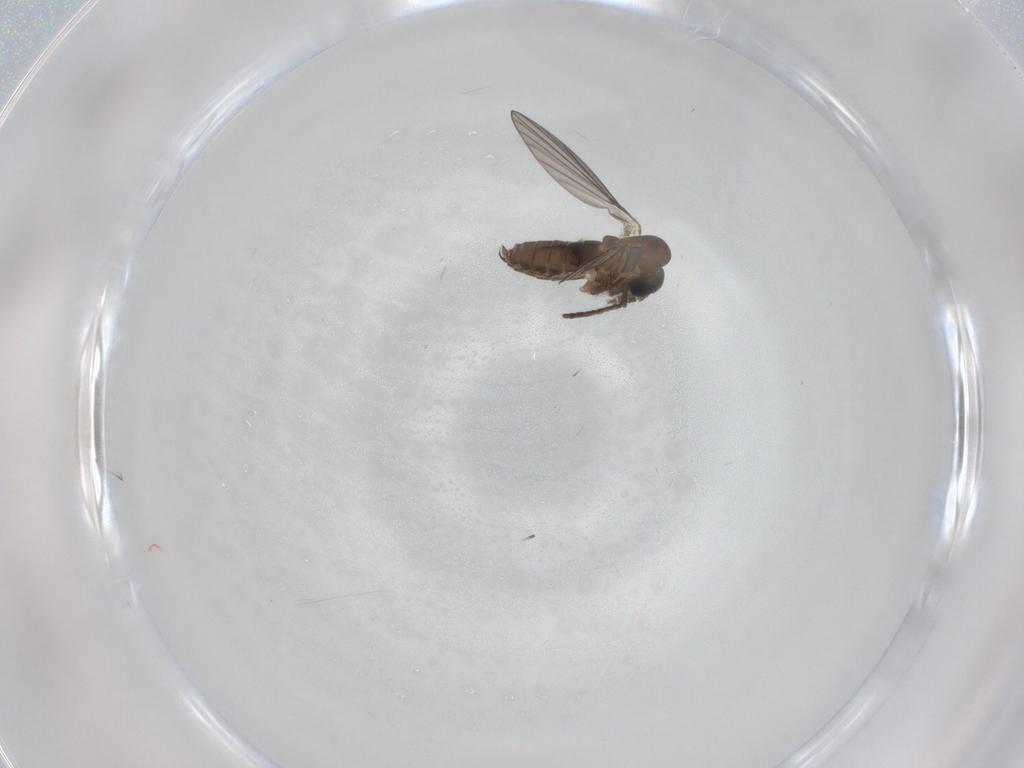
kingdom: Animalia
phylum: Arthropoda
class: Insecta
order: Diptera
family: Psychodidae
